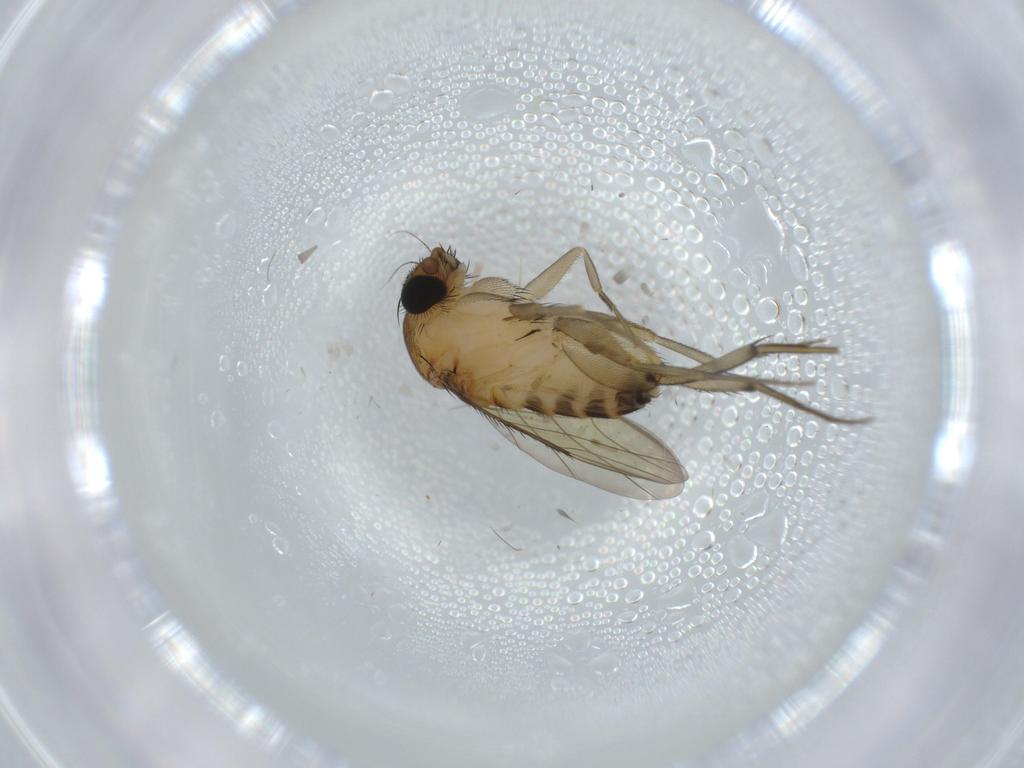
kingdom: Animalia
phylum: Arthropoda
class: Insecta
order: Diptera
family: Phoridae
